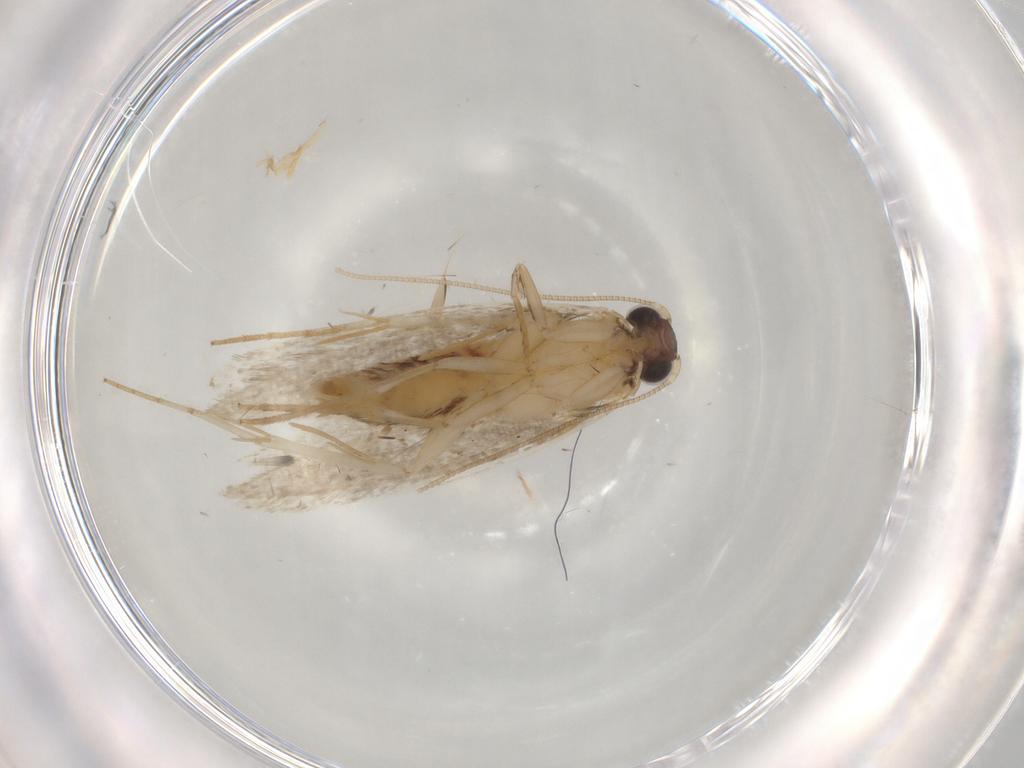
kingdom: Animalia
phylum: Arthropoda
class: Insecta
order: Lepidoptera
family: Tineidae
